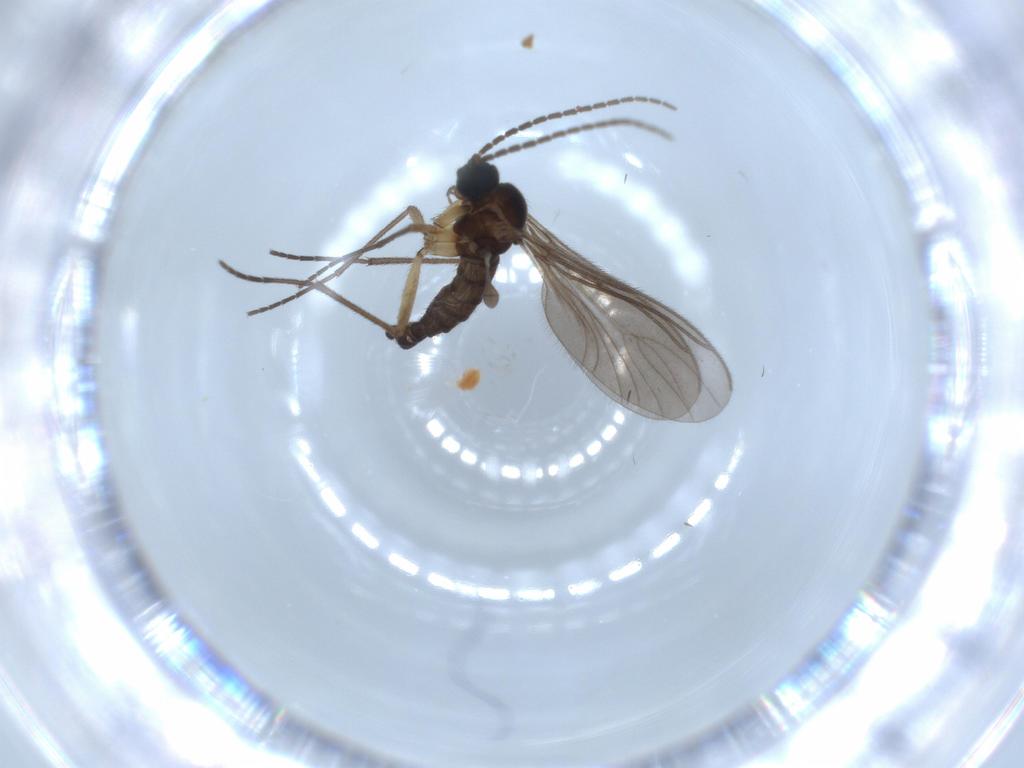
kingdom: Animalia
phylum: Arthropoda
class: Insecta
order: Diptera
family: Sciaridae
